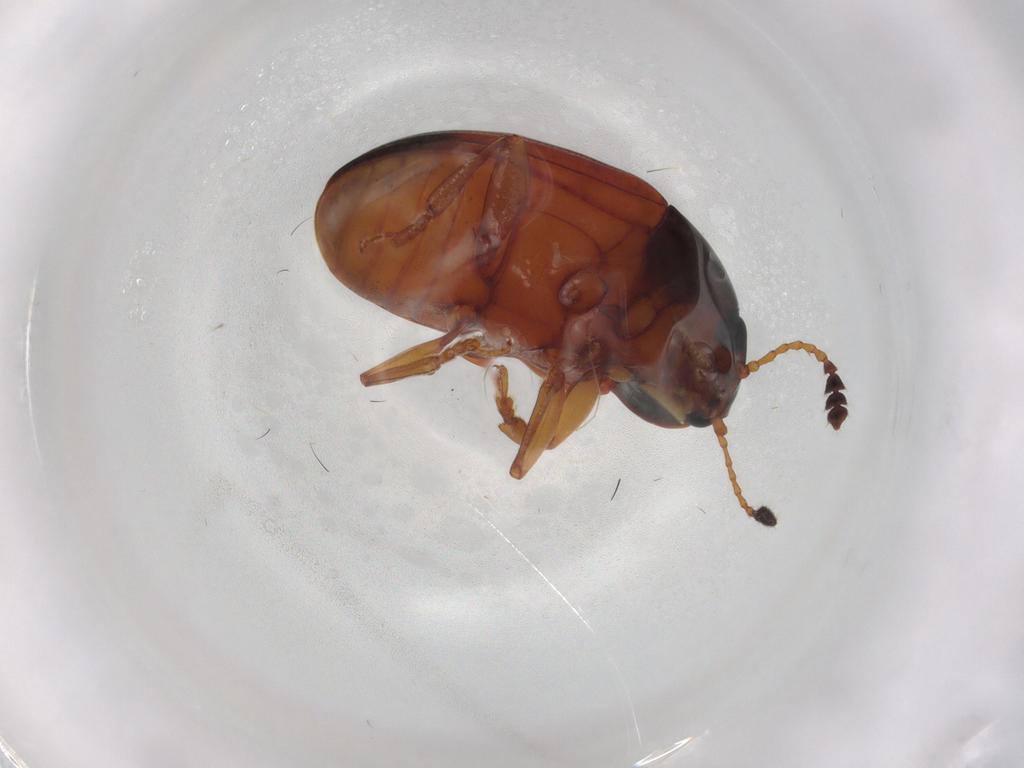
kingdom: Animalia
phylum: Arthropoda
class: Insecta
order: Coleoptera
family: Erotylidae
